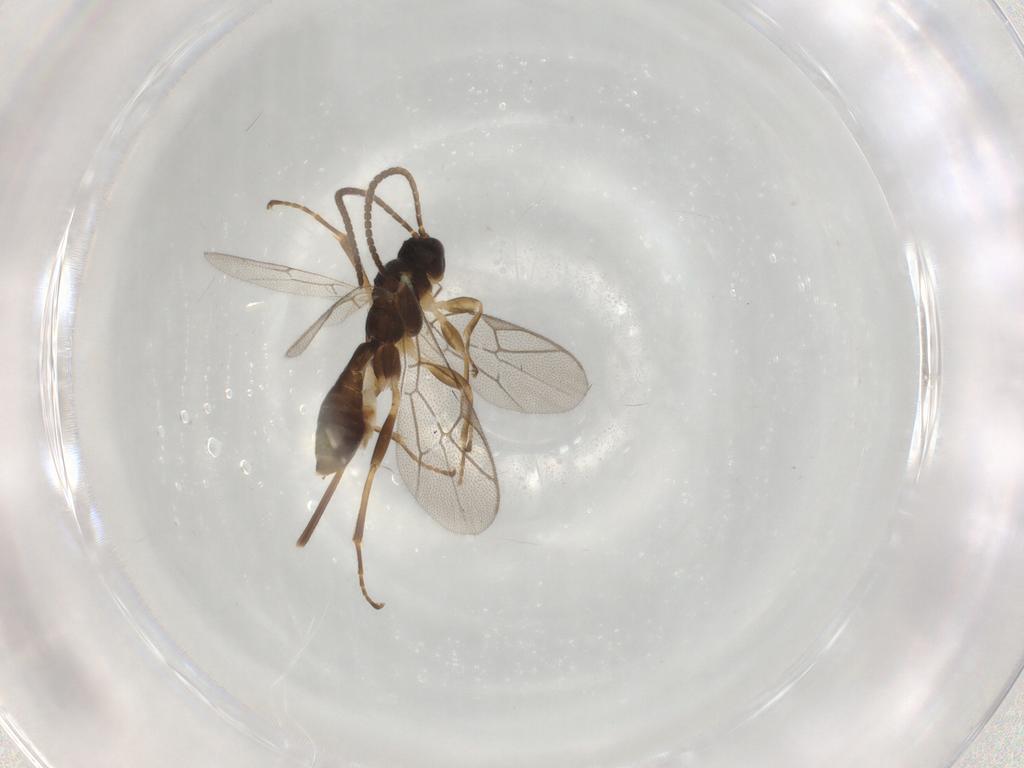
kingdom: Animalia
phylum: Arthropoda
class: Insecta
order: Hymenoptera
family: Ichneumonidae
